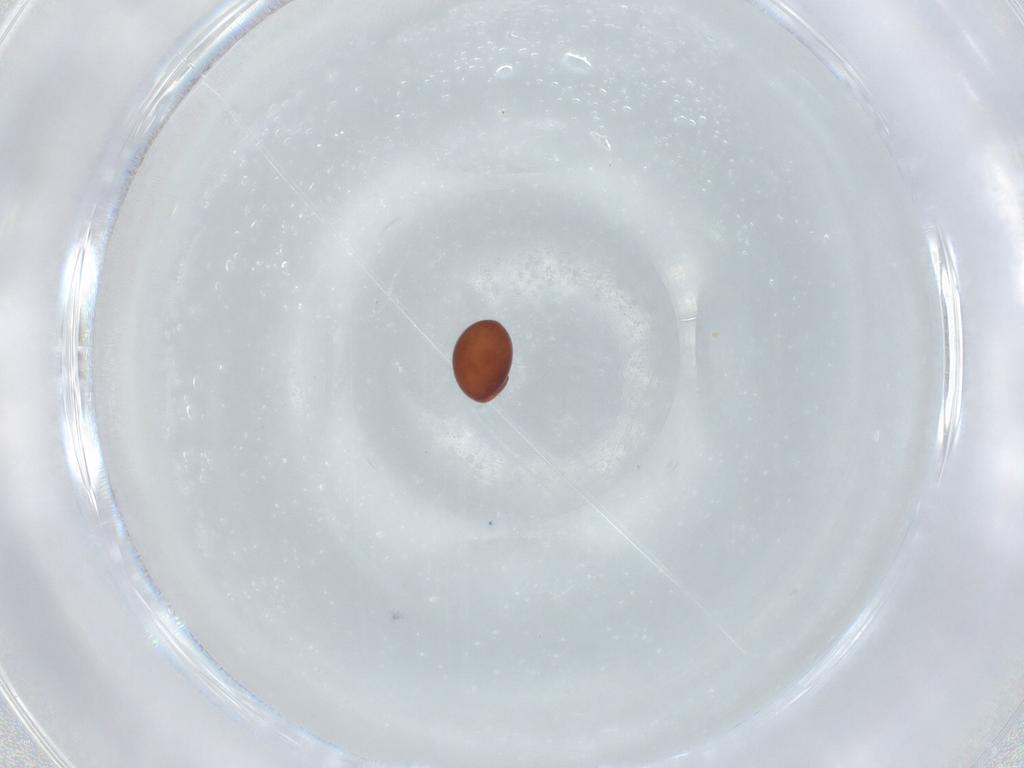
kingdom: Animalia
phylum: Arthropoda
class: Arachnida
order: Sarcoptiformes
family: Phthiracaridae
